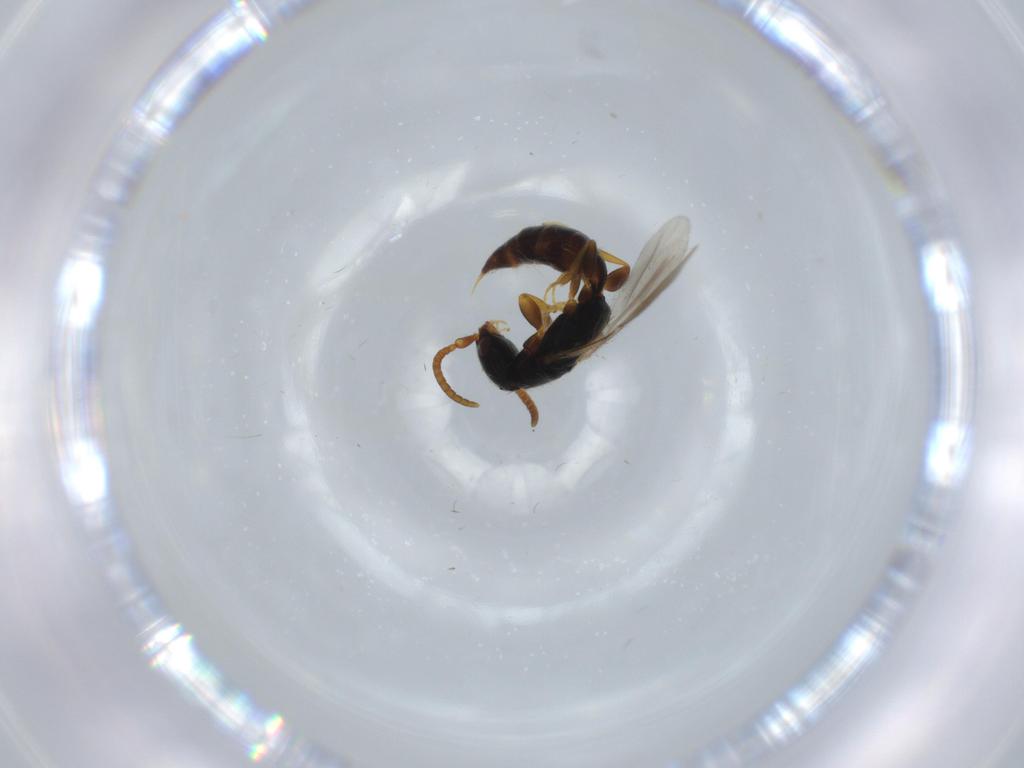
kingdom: Animalia
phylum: Arthropoda
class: Insecta
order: Hymenoptera
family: Bethylidae
